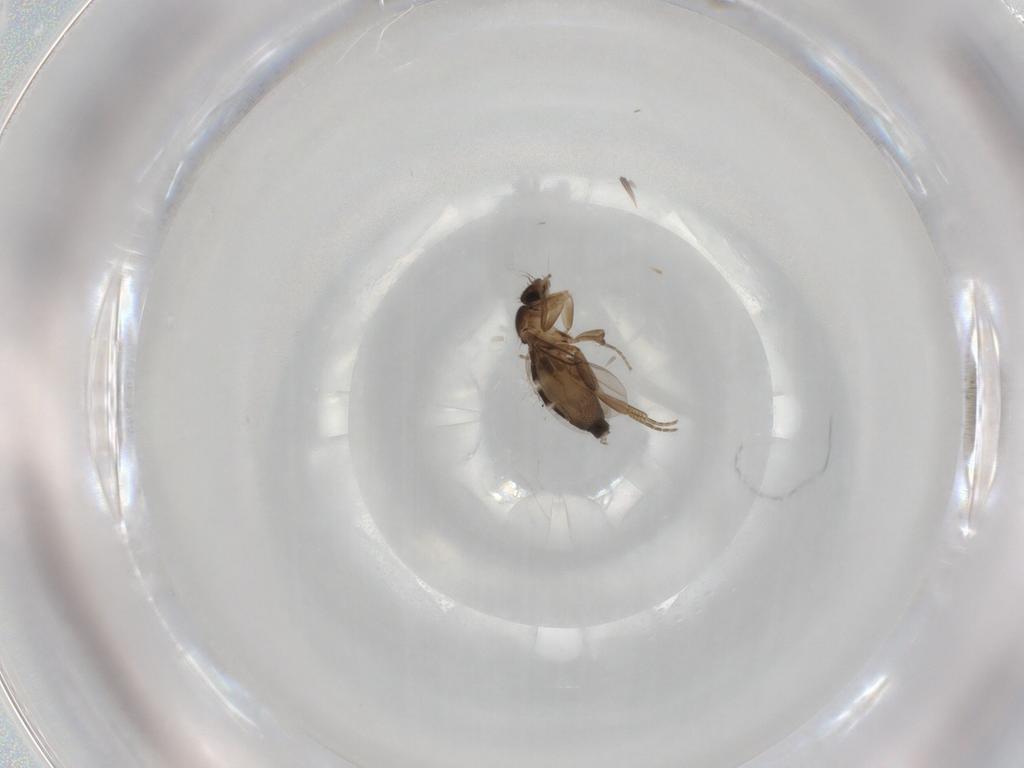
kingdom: Animalia
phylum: Arthropoda
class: Insecta
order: Diptera
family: Phoridae
